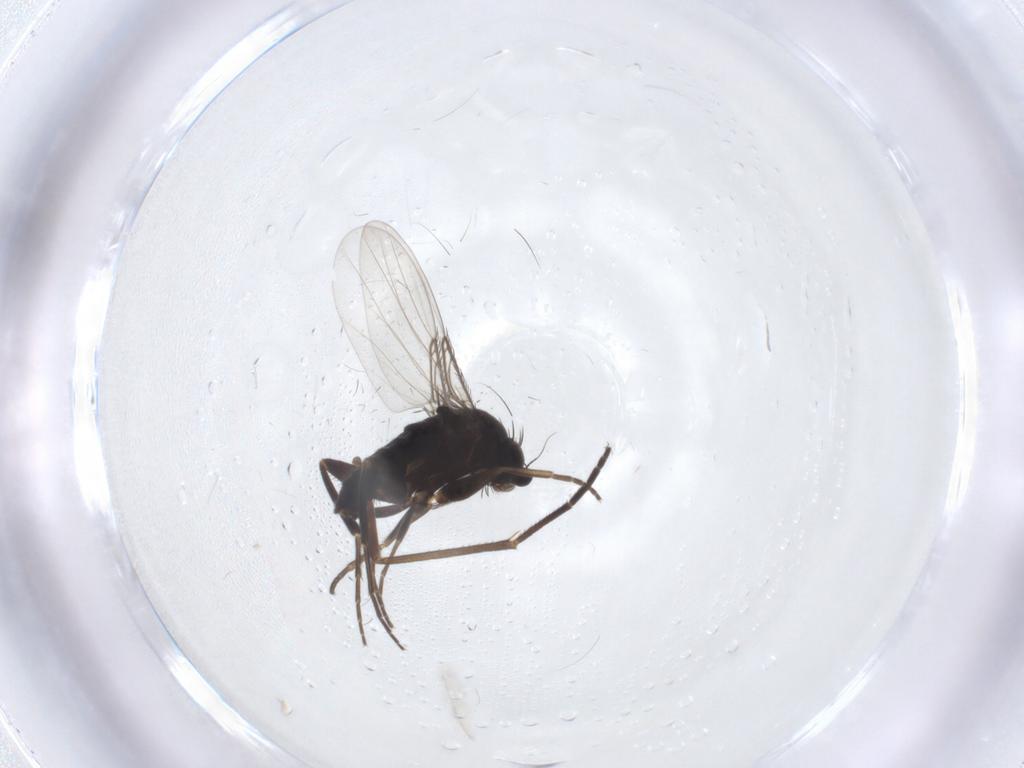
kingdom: Animalia
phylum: Arthropoda
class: Insecta
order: Diptera
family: Phoridae
